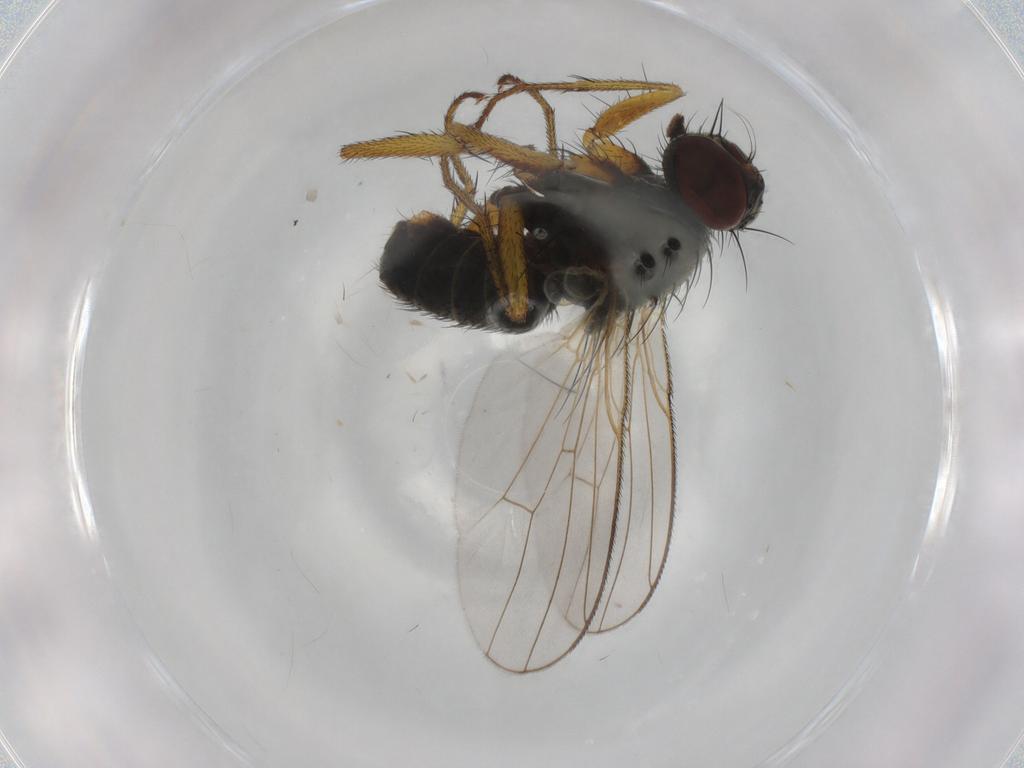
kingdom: Animalia
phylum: Arthropoda
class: Insecta
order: Diptera
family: Muscidae
